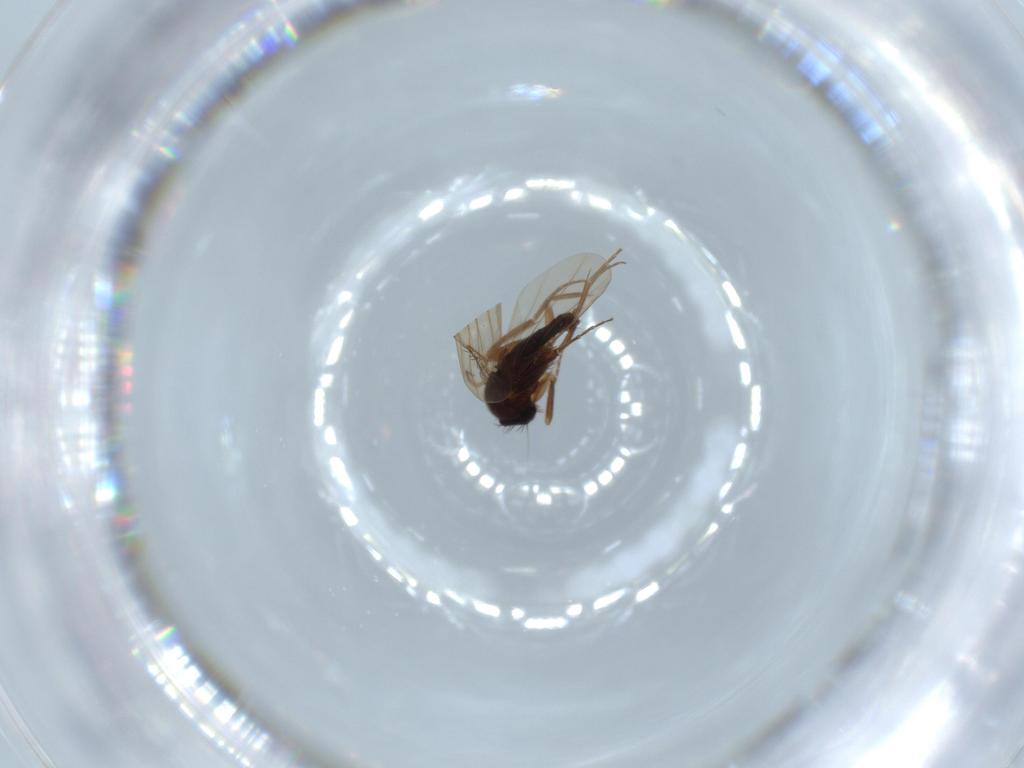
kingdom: Animalia
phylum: Arthropoda
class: Insecta
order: Diptera
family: Phoridae
